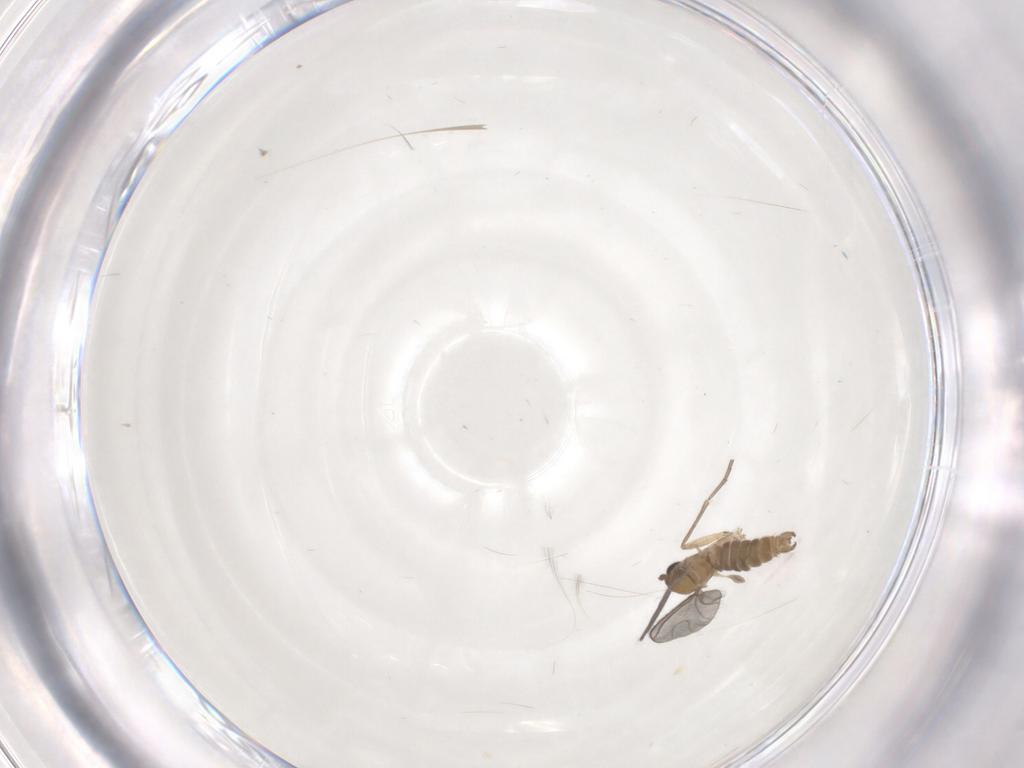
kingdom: Animalia
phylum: Arthropoda
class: Insecta
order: Diptera
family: Sciaridae
